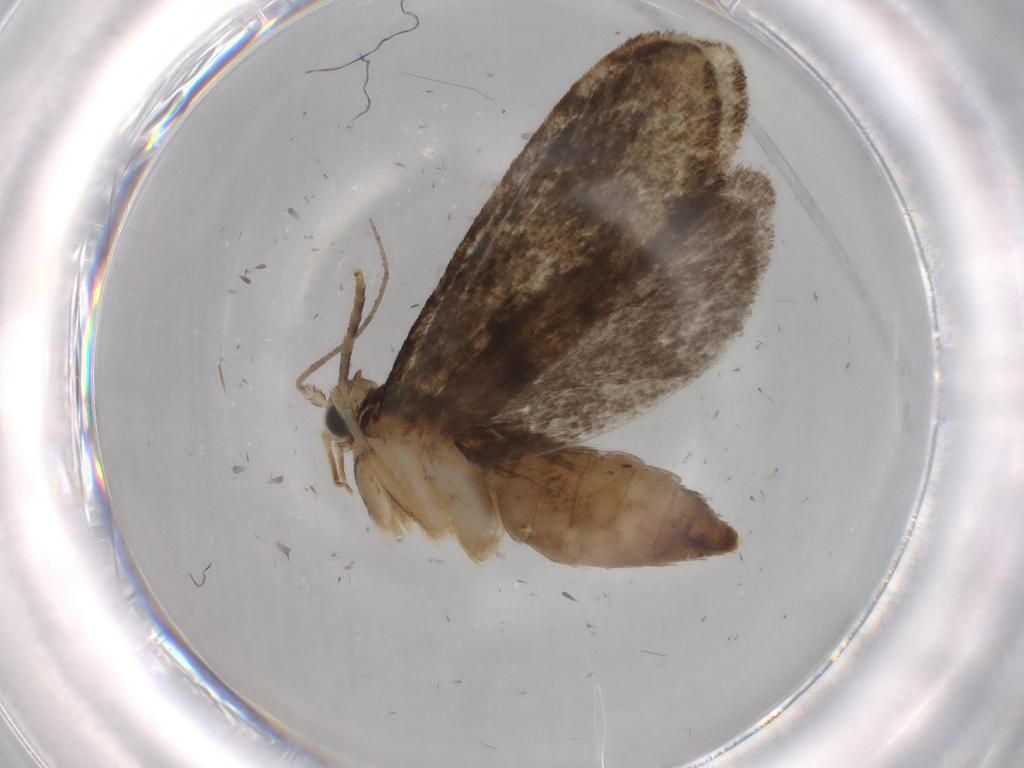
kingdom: Animalia
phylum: Arthropoda
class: Insecta
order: Lepidoptera
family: Dryadaulidae
